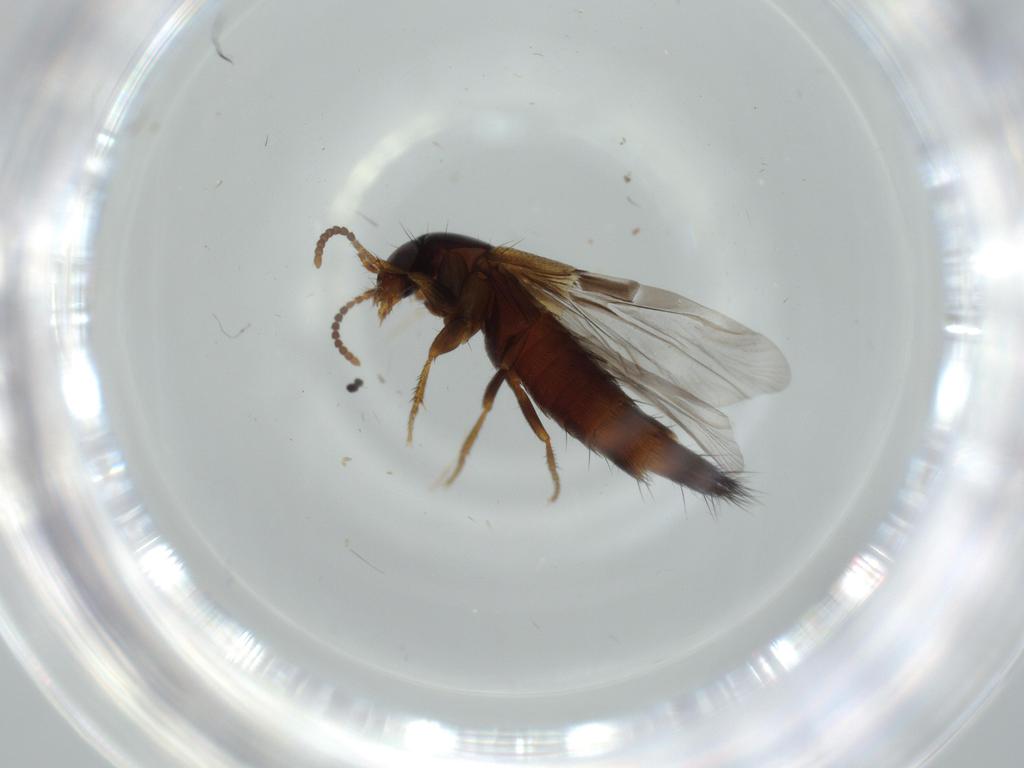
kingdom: Animalia
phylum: Arthropoda
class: Insecta
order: Coleoptera
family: Staphylinidae
